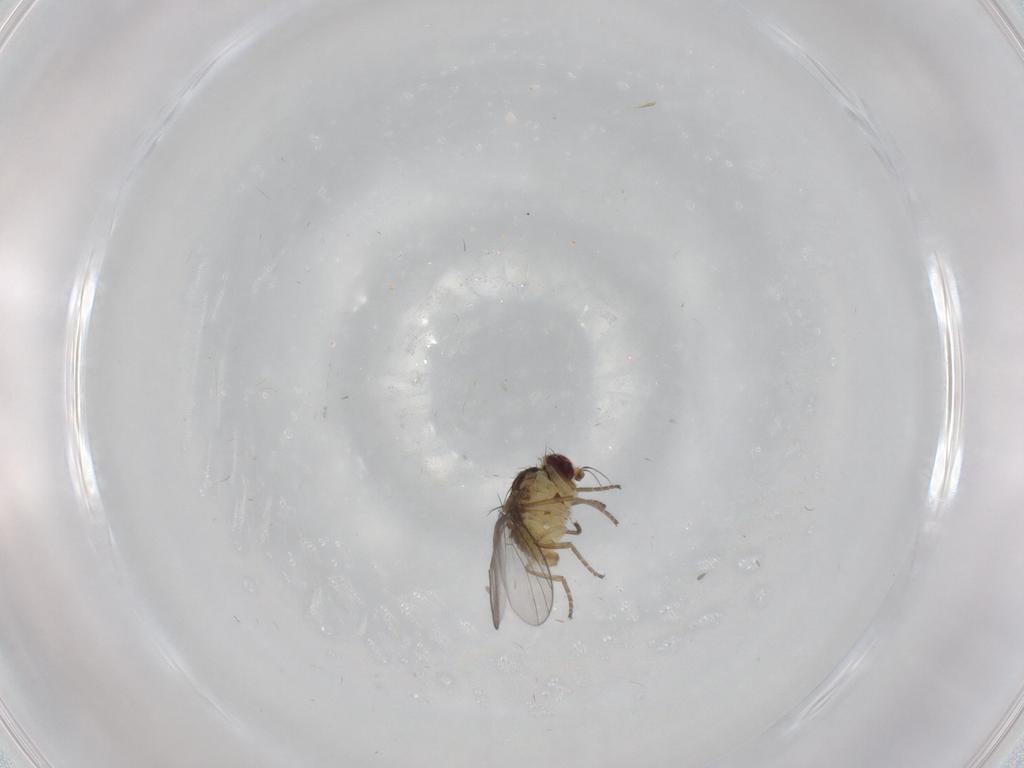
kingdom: Animalia
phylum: Arthropoda
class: Insecta
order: Diptera
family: Agromyzidae
